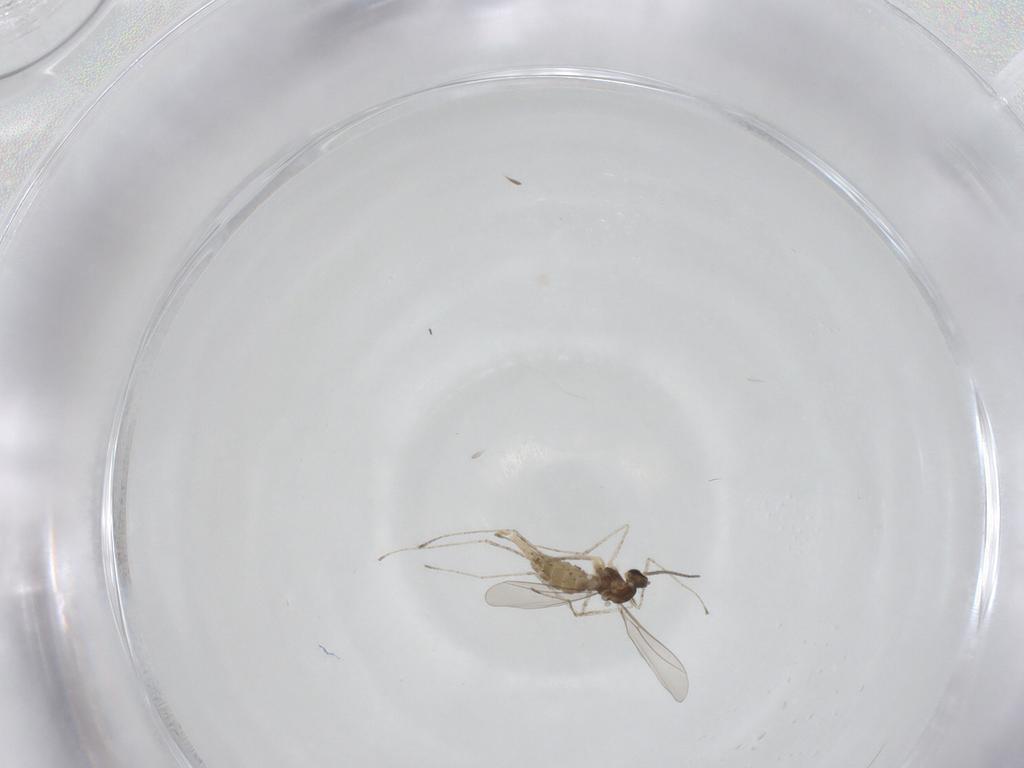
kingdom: Animalia
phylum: Arthropoda
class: Insecta
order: Diptera
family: Cecidomyiidae
